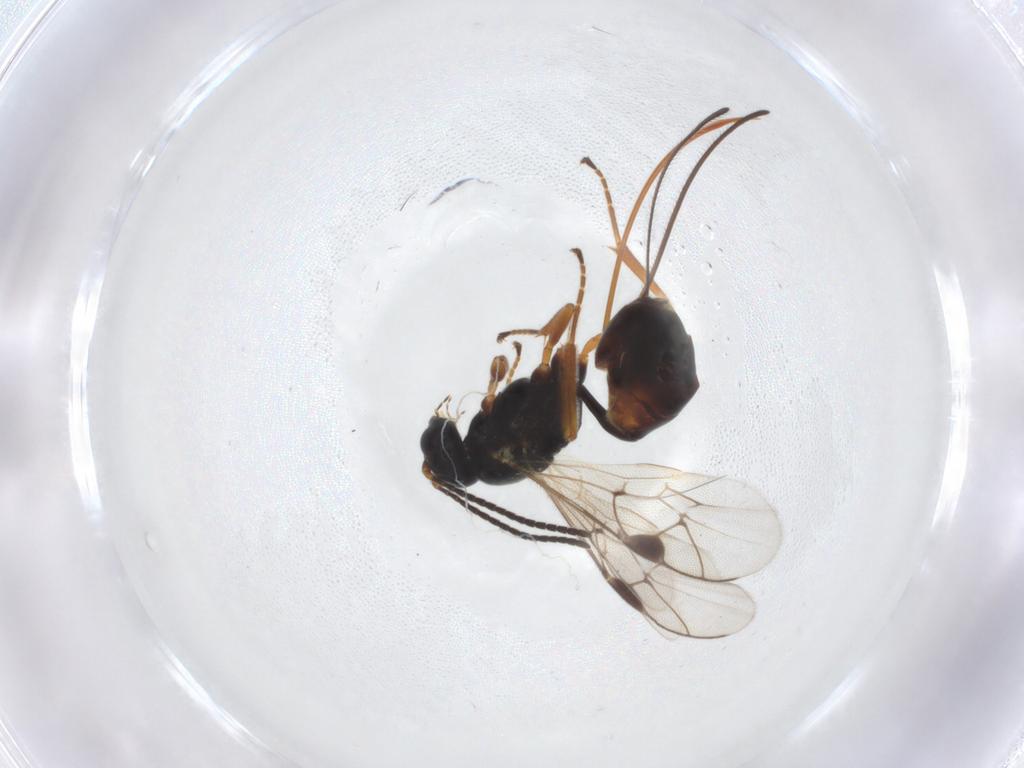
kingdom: Animalia
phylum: Arthropoda
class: Insecta
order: Hymenoptera
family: Ichneumonidae
